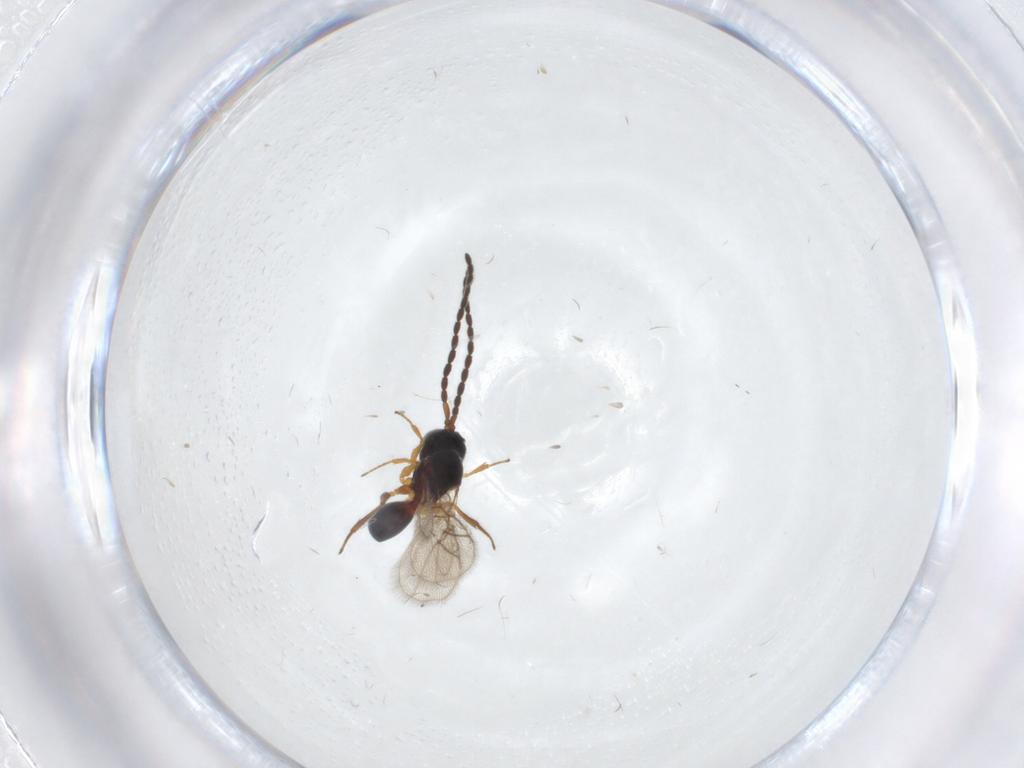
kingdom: Animalia
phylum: Arthropoda
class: Insecta
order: Hymenoptera
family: Figitidae
